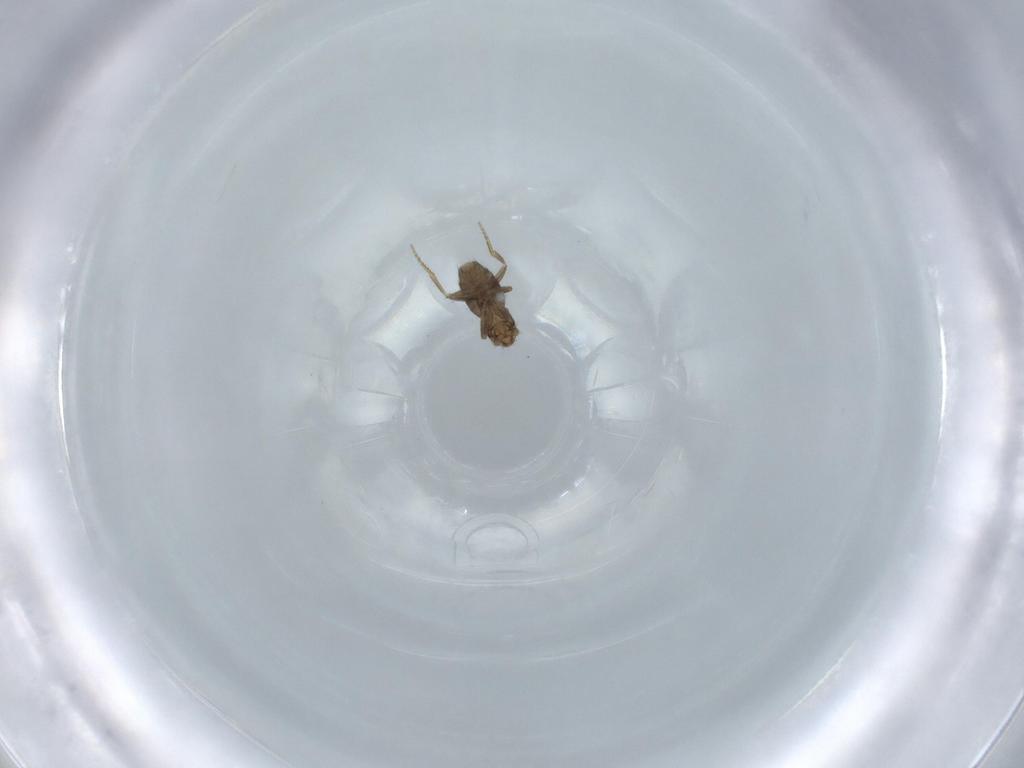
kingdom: Animalia
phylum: Arthropoda
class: Insecta
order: Diptera
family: Phoridae
